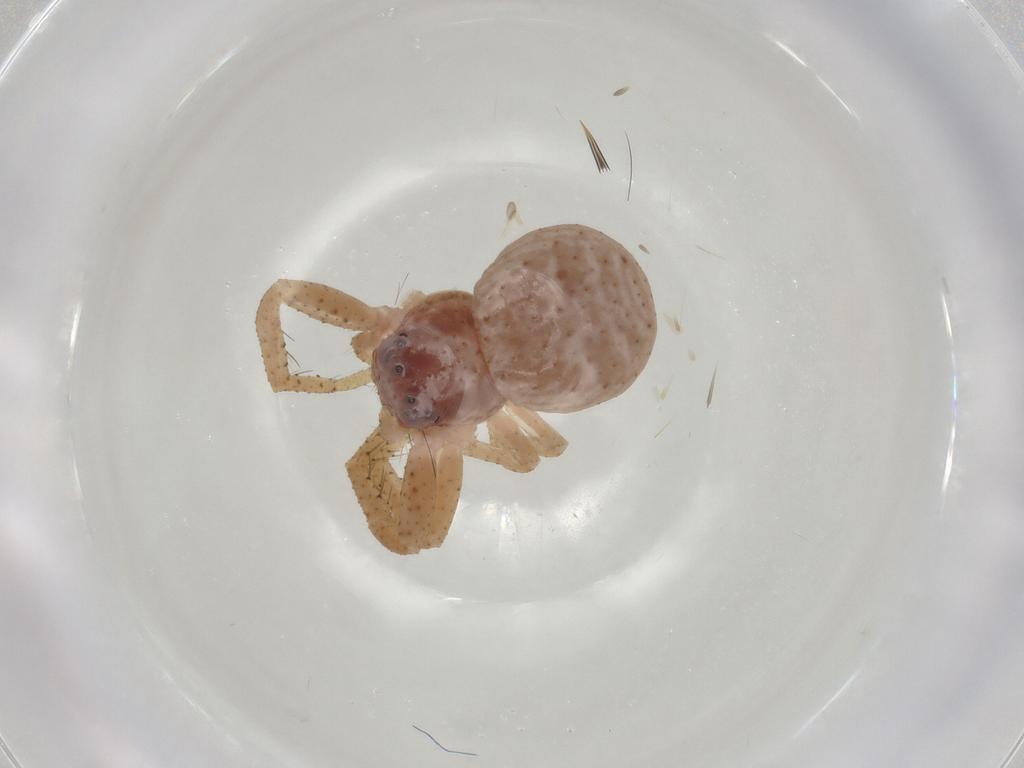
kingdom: Animalia
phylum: Arthropoda
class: Arachnida
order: Araneae
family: Thomisidae
